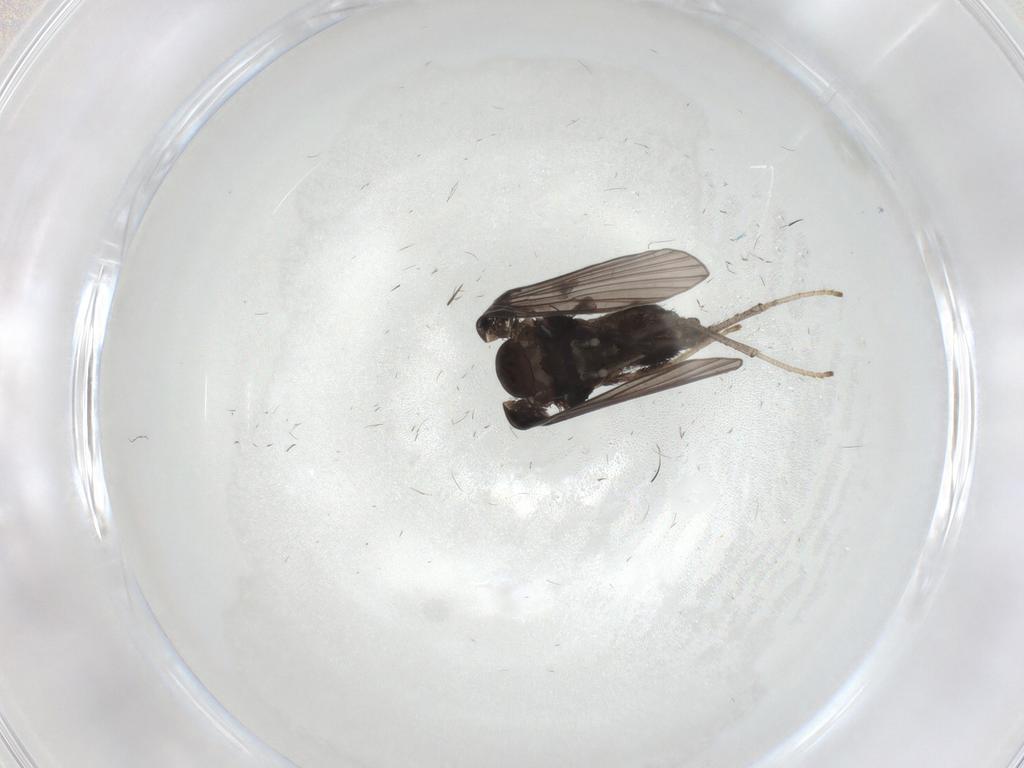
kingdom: Animalia
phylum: Arthropoda
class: Insecta
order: Diptera
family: Psychodidae
